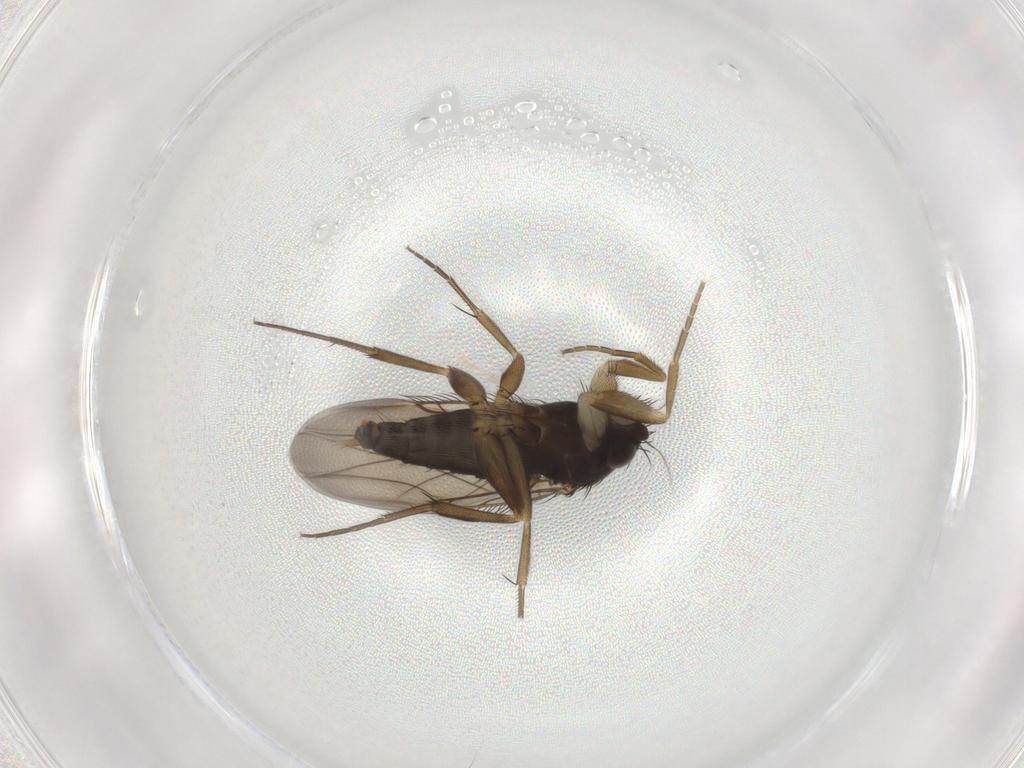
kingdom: Animalia
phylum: Arthropoda
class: Insecta
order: Diptera
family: Phoridae
